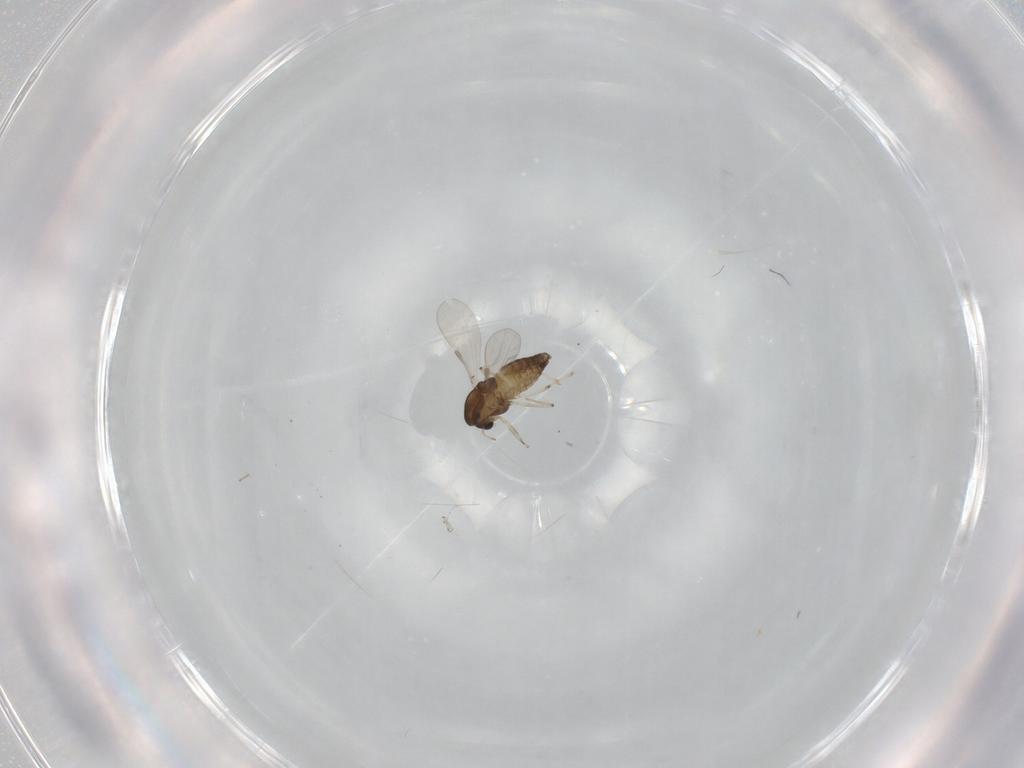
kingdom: Animalia
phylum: Arthropoda
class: Insecta
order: Diptera
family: Chironomidae
